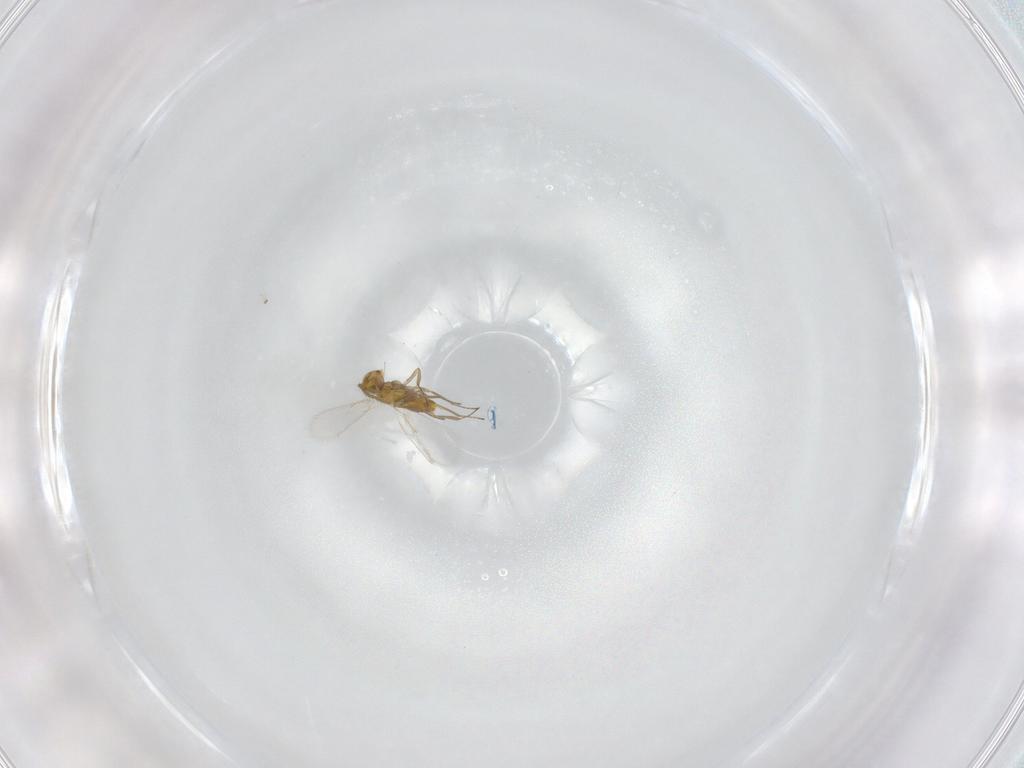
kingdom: Animalia
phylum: Arthropoda
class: Insecta
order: Hymenoptera
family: Aphelinidae
